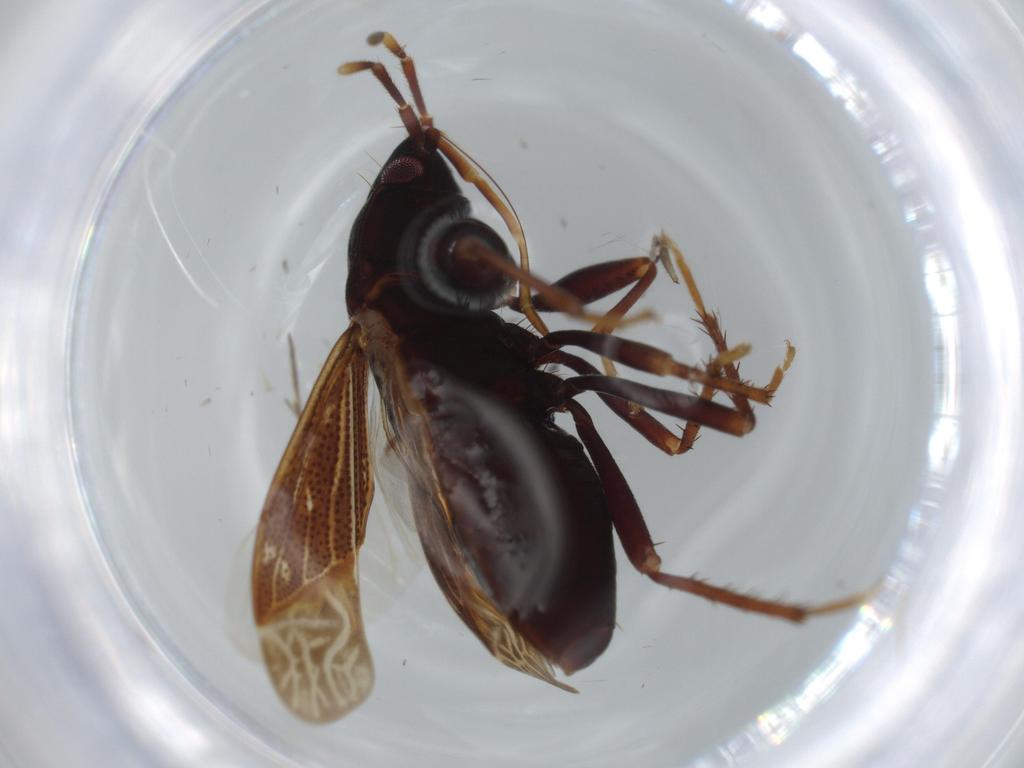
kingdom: Animalia
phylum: Arthropoda
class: Insecta
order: Hemiptera
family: Rhyparochromidae
